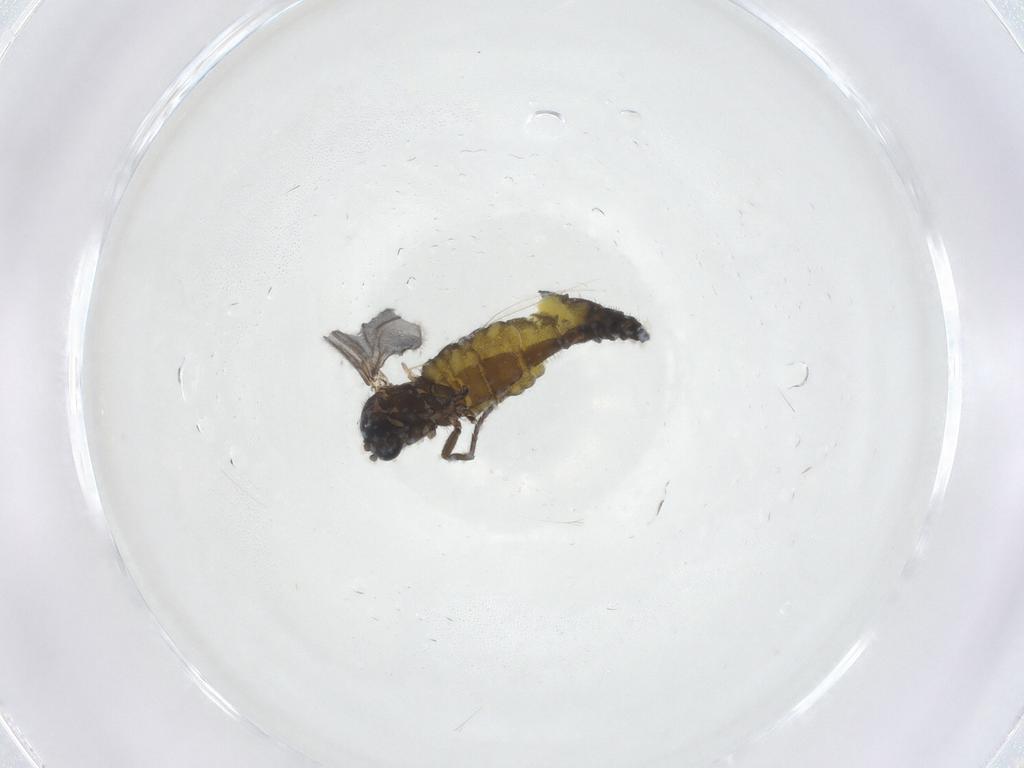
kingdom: Animalia
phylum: Arthropoda
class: Insecta
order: Diptera
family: Sciaridae
